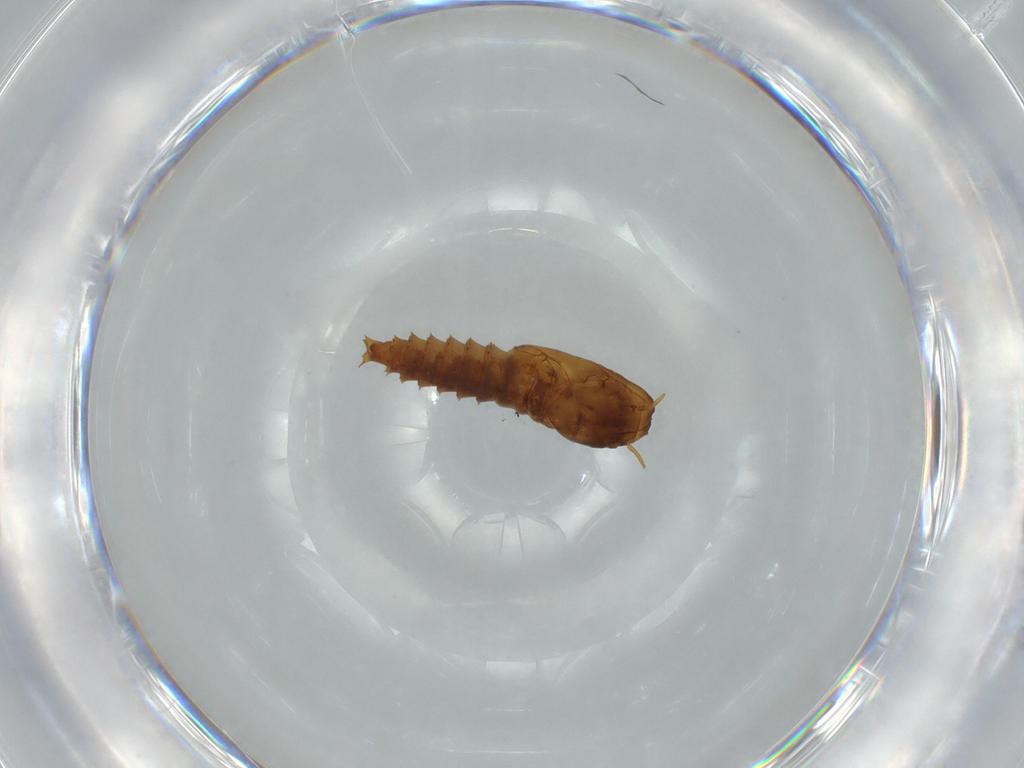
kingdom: Animalia
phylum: Arthropoda
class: Insecta
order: Diptera
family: Ceratopogonidae
